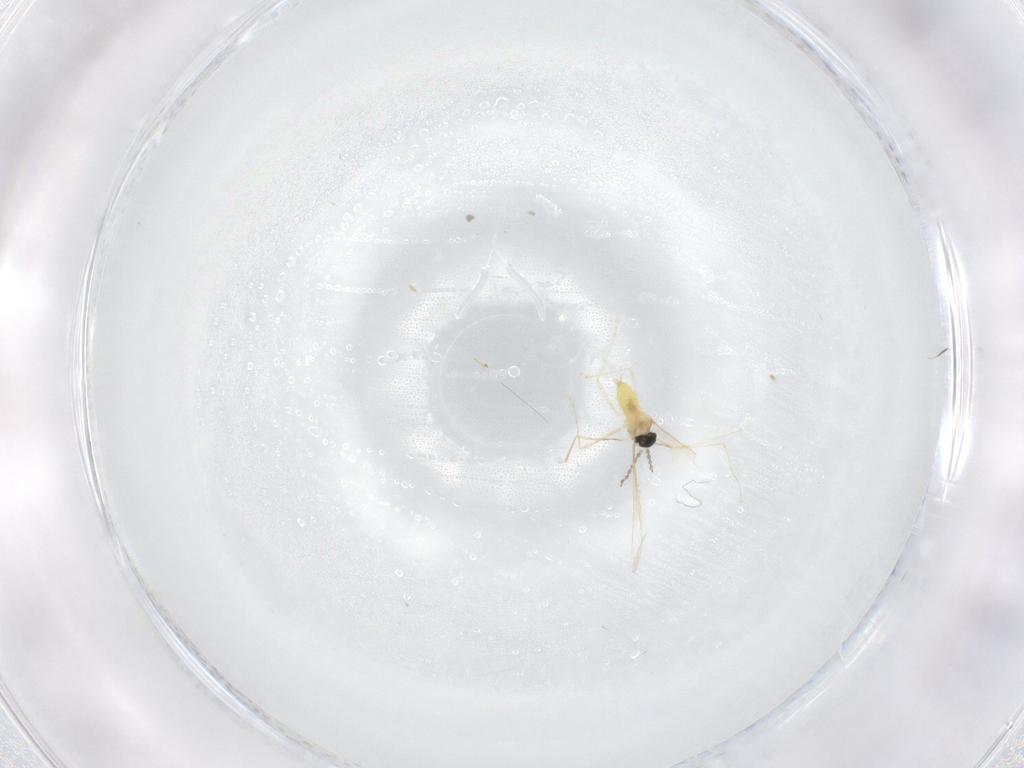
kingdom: Animalia
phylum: Arthropoda
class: Insecta
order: Diptera
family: Cecidomyiidae
